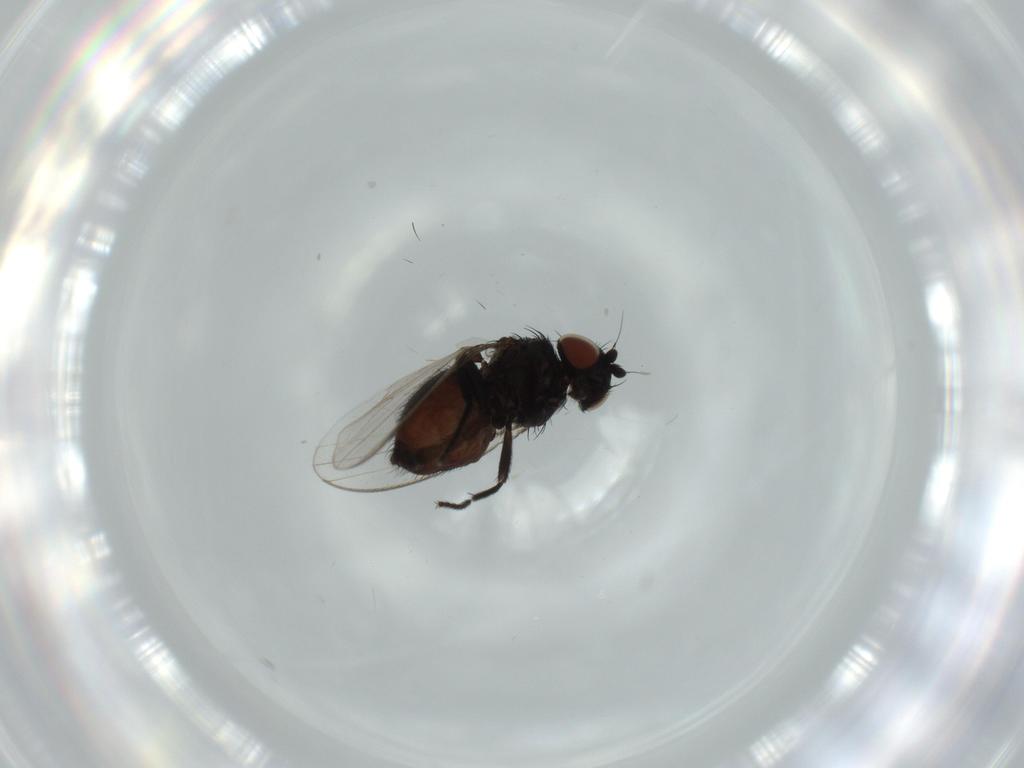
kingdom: Animalia
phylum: Arthropoda
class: Insecta
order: Diptera
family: Milichiidae
